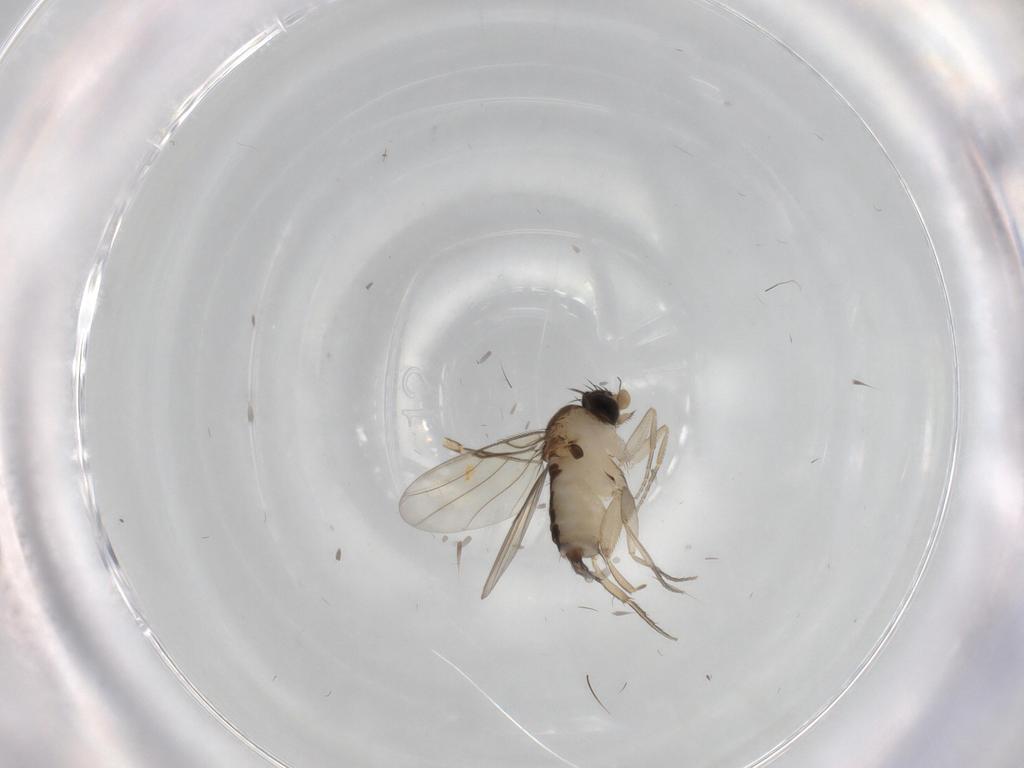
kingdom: Animalia
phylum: Arthropoda
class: Insecta
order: Diptera
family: Phoridae
